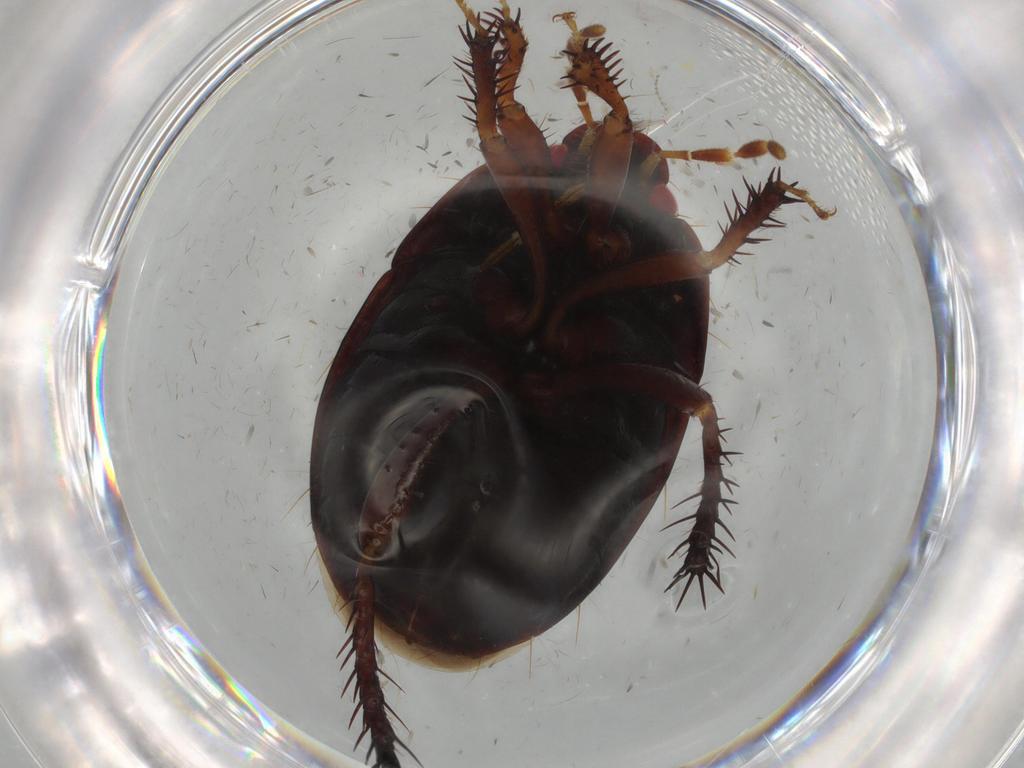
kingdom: Animalia
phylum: Arthropoda
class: Insecta
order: Hemiptera
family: Cydnidae
